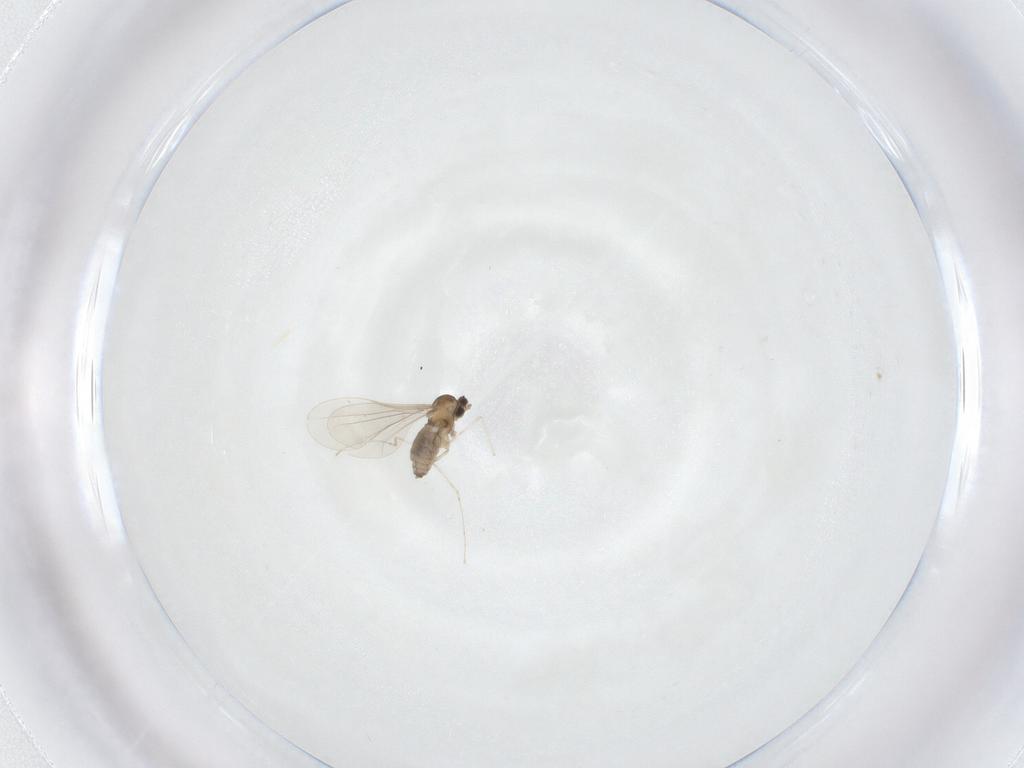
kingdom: Animalia
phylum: Arthropoda
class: Insecta
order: Diptera
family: Cecidomyiidae
